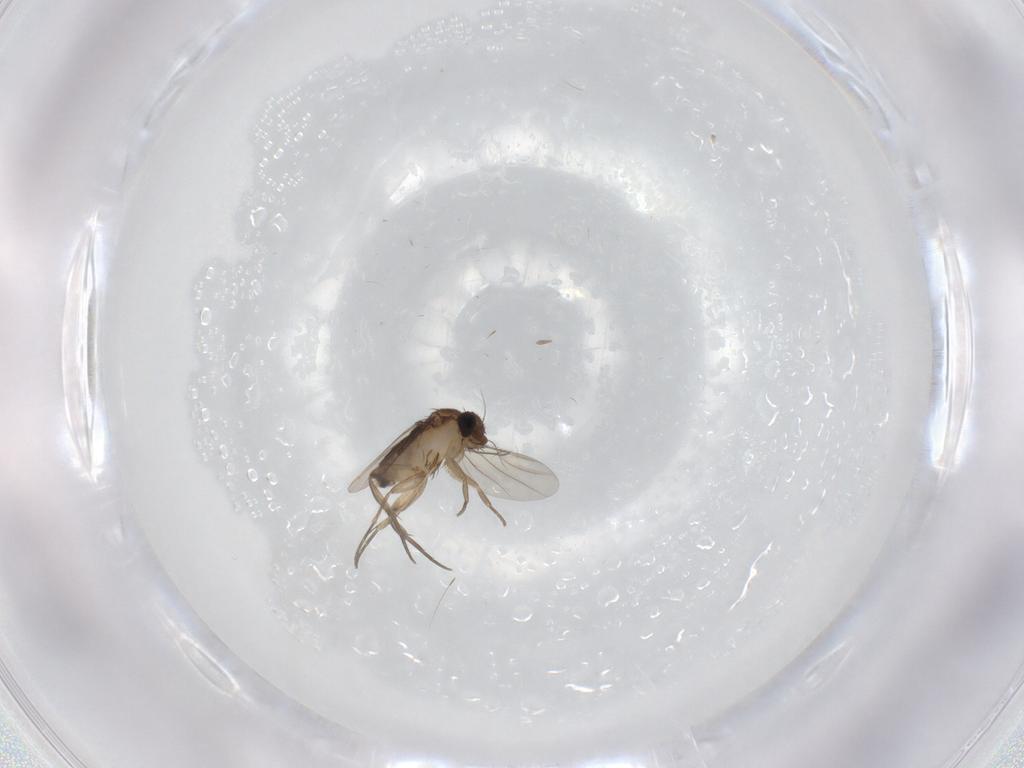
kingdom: Animalia
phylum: Arthropoda
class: Insecta
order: Diptera
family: Phoridae
